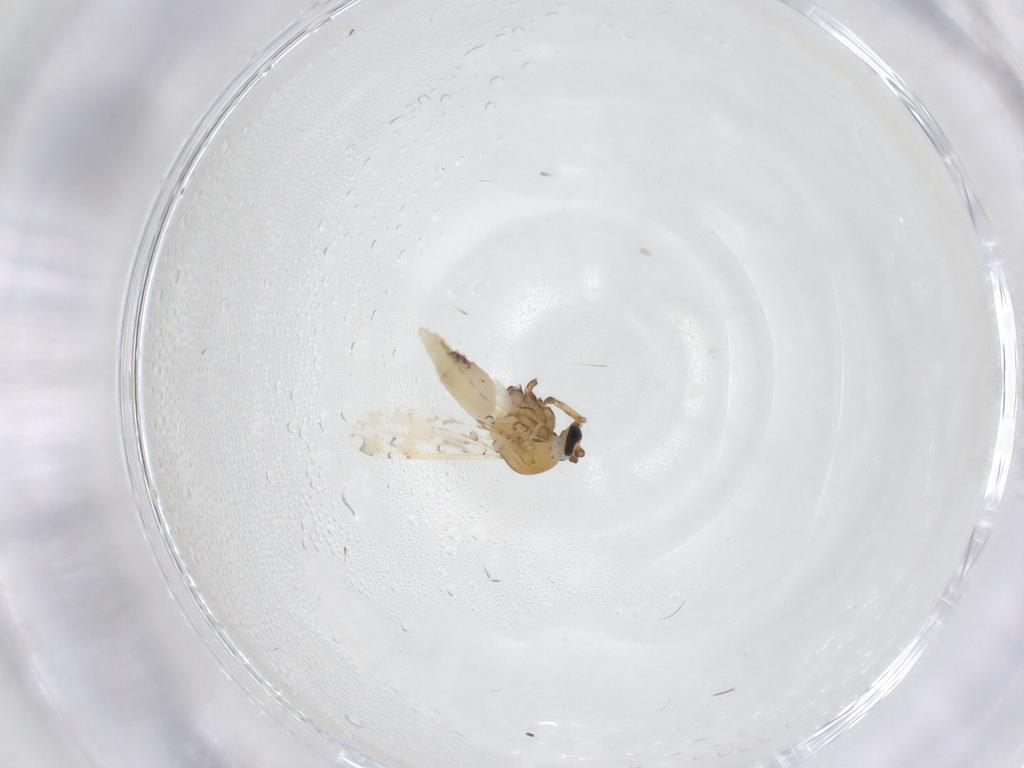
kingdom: Animalia
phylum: Arthropoda
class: Insecta
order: Diptera
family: Ceratopogonidae
